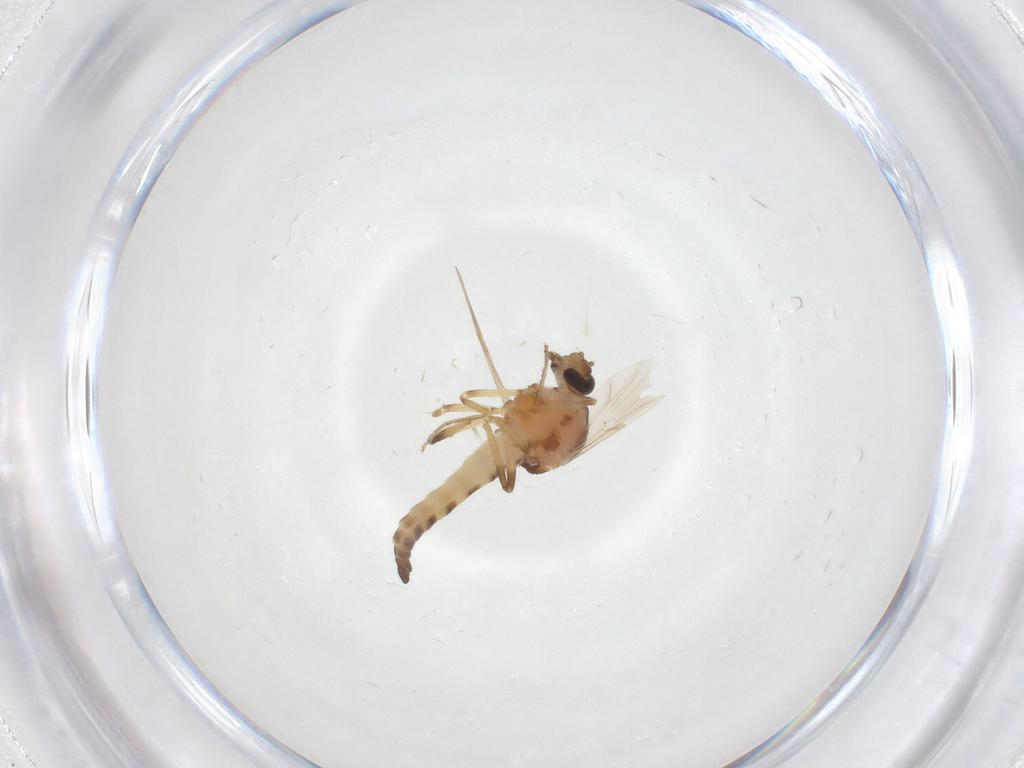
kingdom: Animalia
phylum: Arthropoda
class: Insecta
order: Diptera
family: Ceratopogonidae
